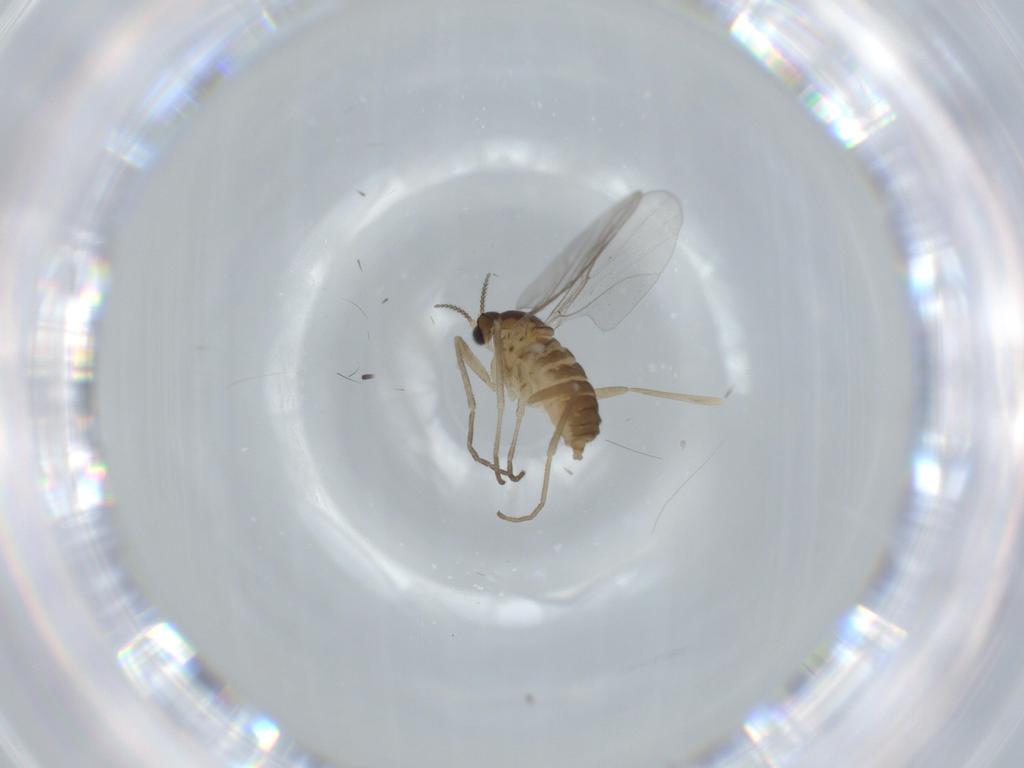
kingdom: Animalia
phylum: Arthropoda
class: Insecta
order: Diptera
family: Cecidomyiidae
